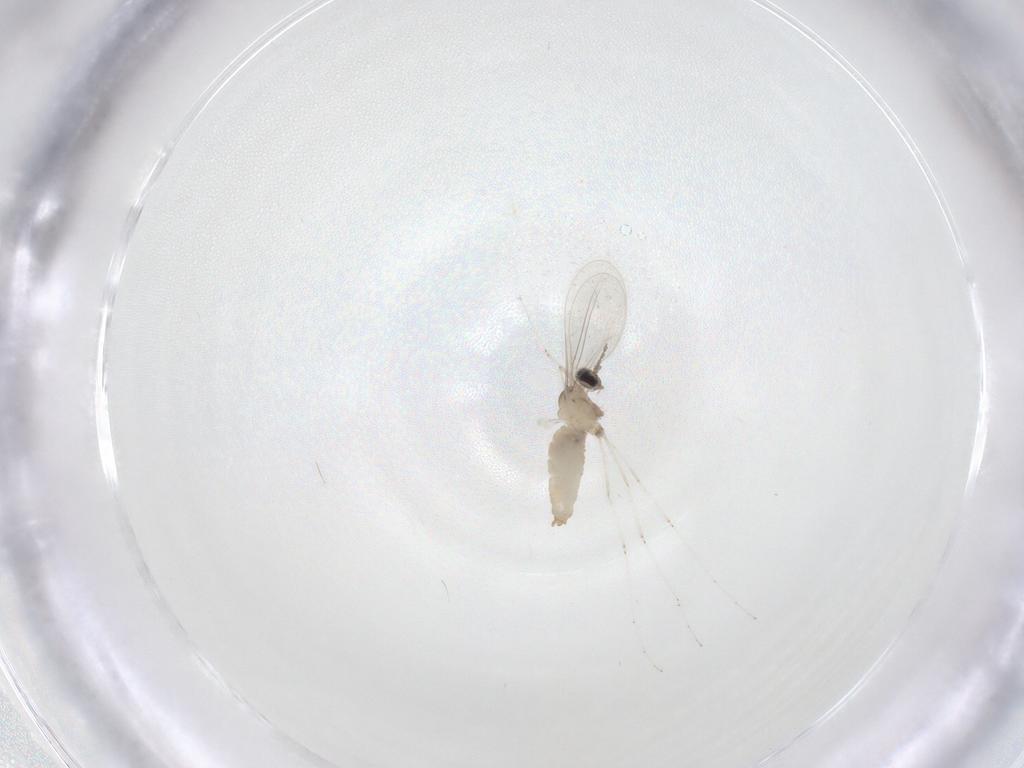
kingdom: Animalia
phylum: Arthropoda
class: Insecta
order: Diptera
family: Cecidomyiidae
